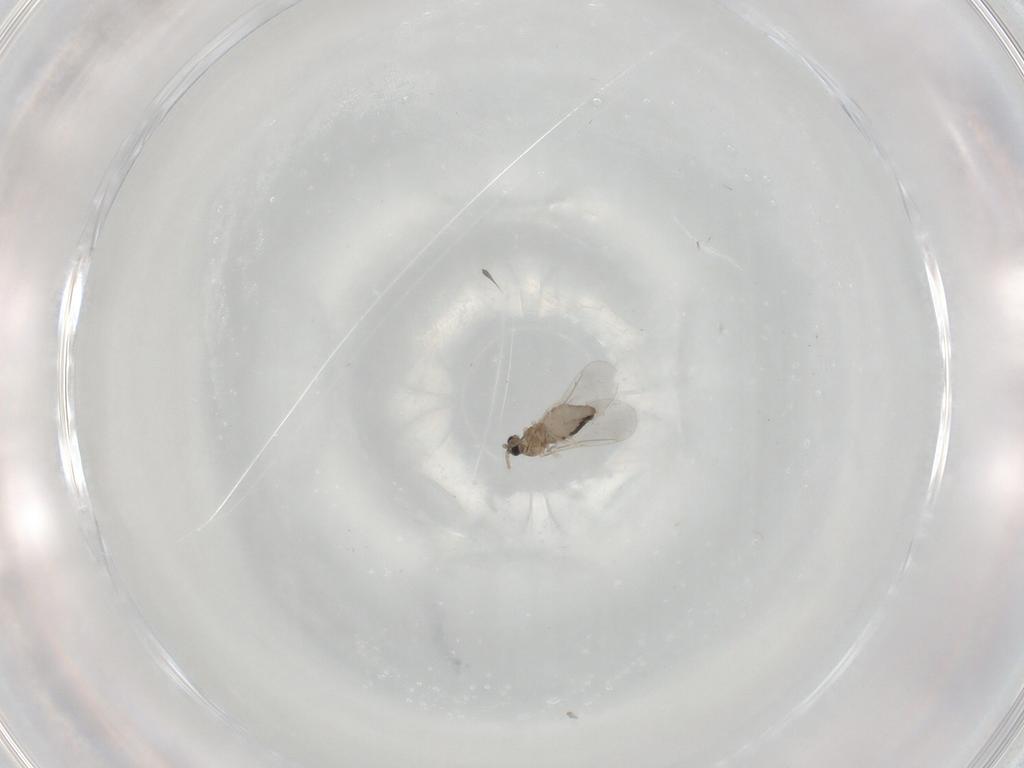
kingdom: Animalia
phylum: Arthropoda
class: Insecta
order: Diptera
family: Cecidomyiidae
